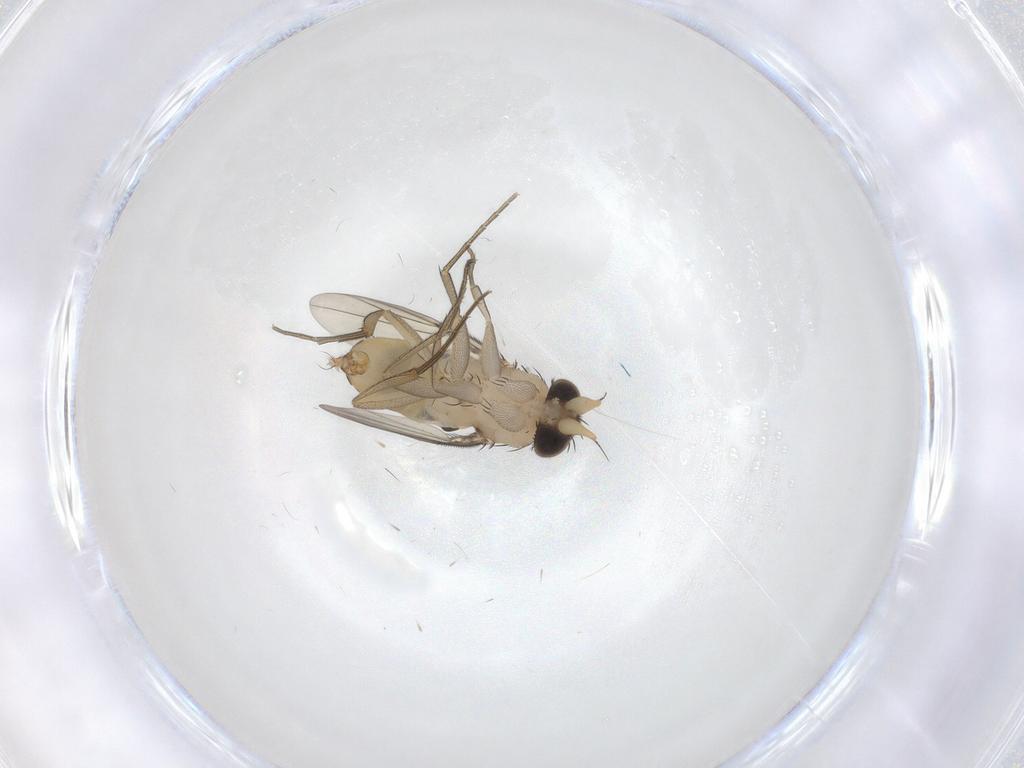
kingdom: Animalia
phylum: Arthropoda
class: Insecta
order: Diptera
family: Phoridae
